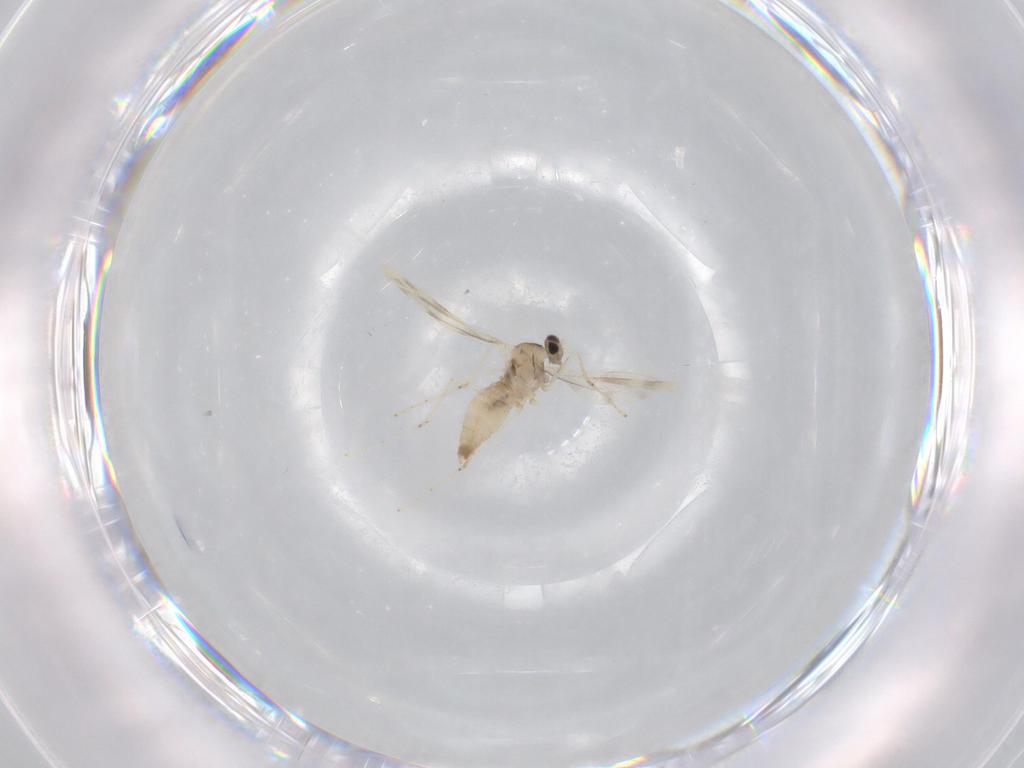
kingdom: Animalia
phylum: Arthropoda
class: Insecta
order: Diptera
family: Cecidomyiidae
